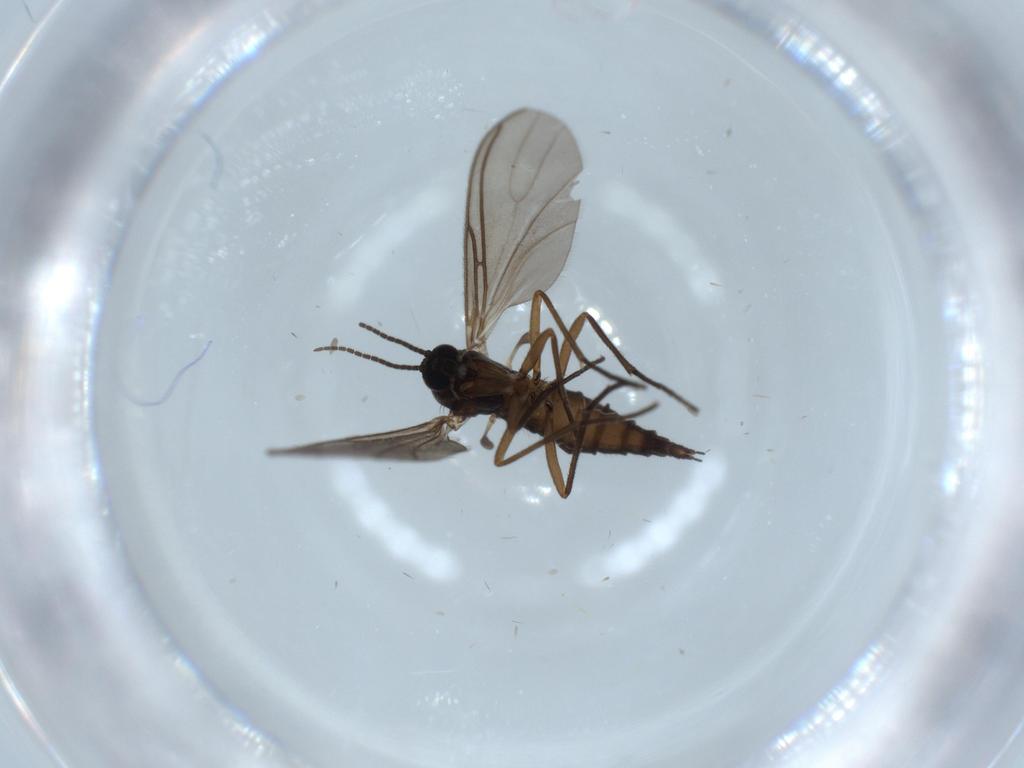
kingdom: Animalia
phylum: Arthropoda
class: Insecta
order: Diptera
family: Sciaridae
